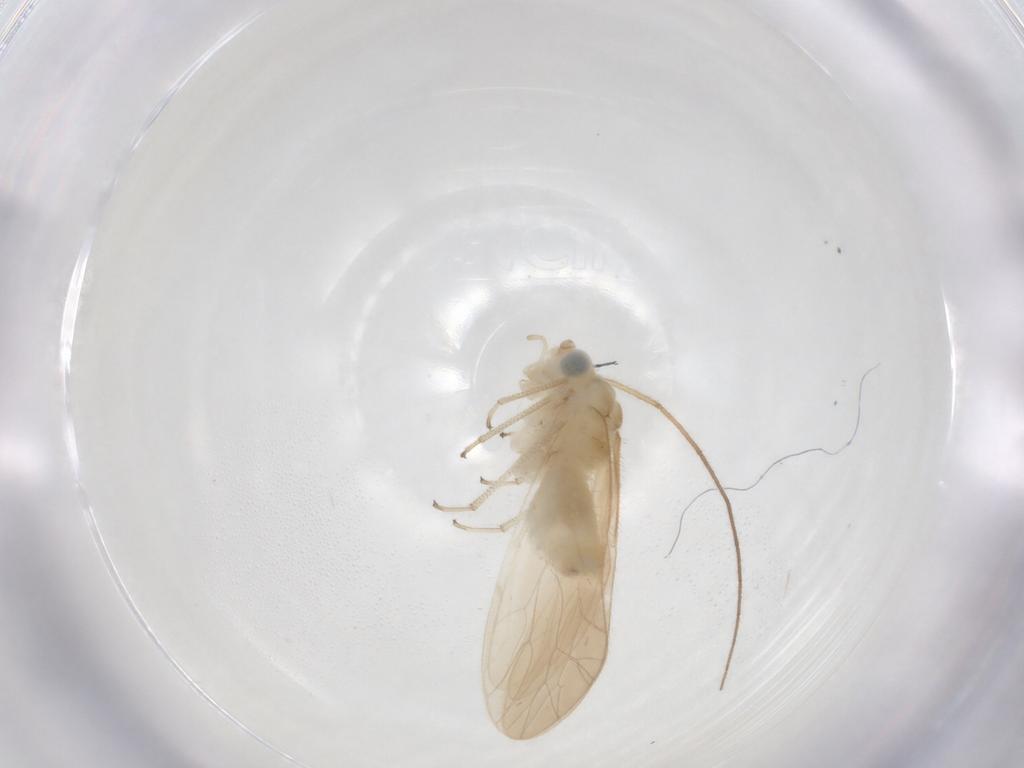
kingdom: Animalia
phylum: Arthropoda
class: Insecta
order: Psocodea
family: Caeciliusidae
